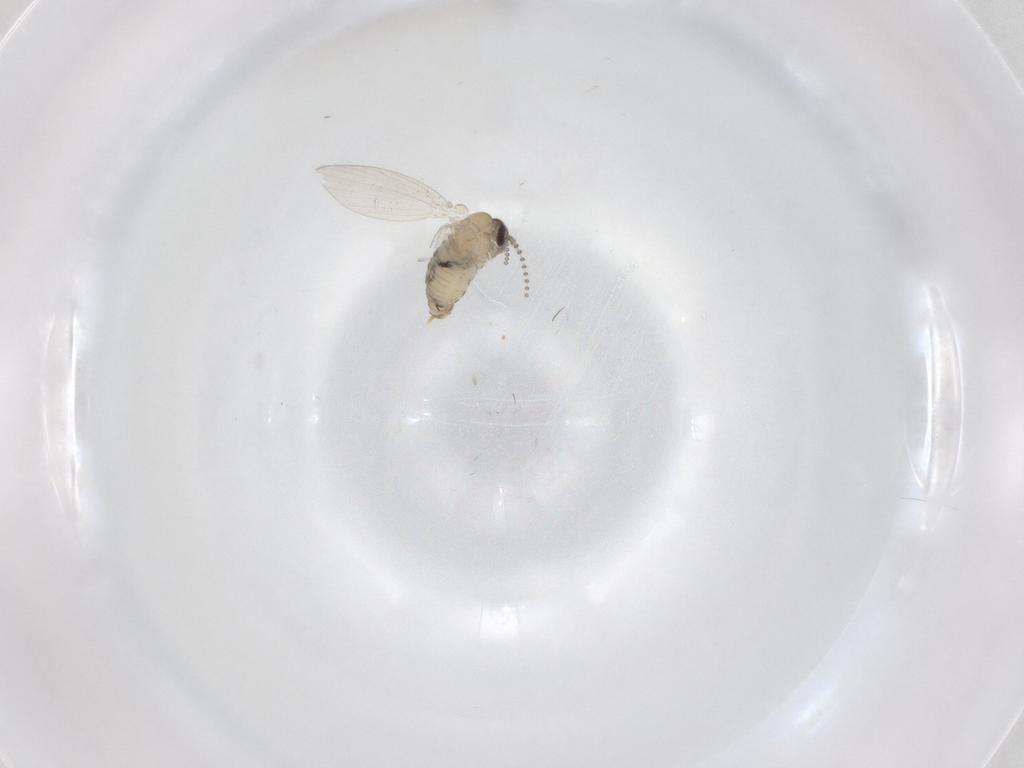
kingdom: Animalia
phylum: Arthropoda
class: Insecta
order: Diptera
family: Psychodidae
